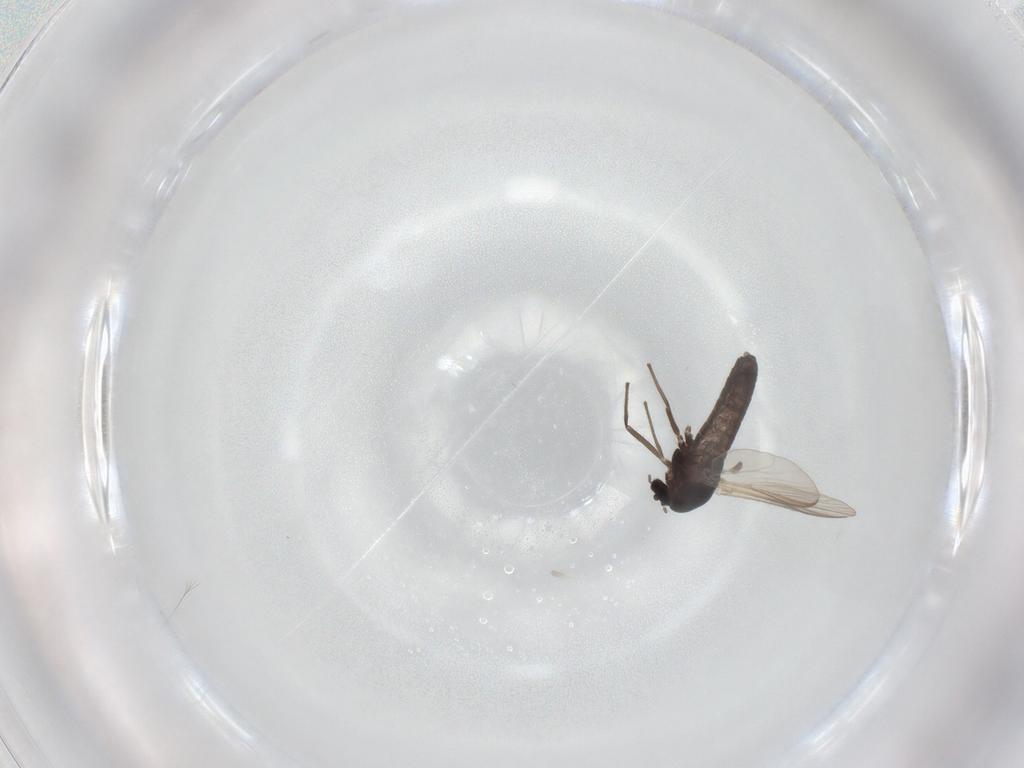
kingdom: Animalia
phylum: Arthropoda
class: Insecta
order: Diptera
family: Chironomidae
